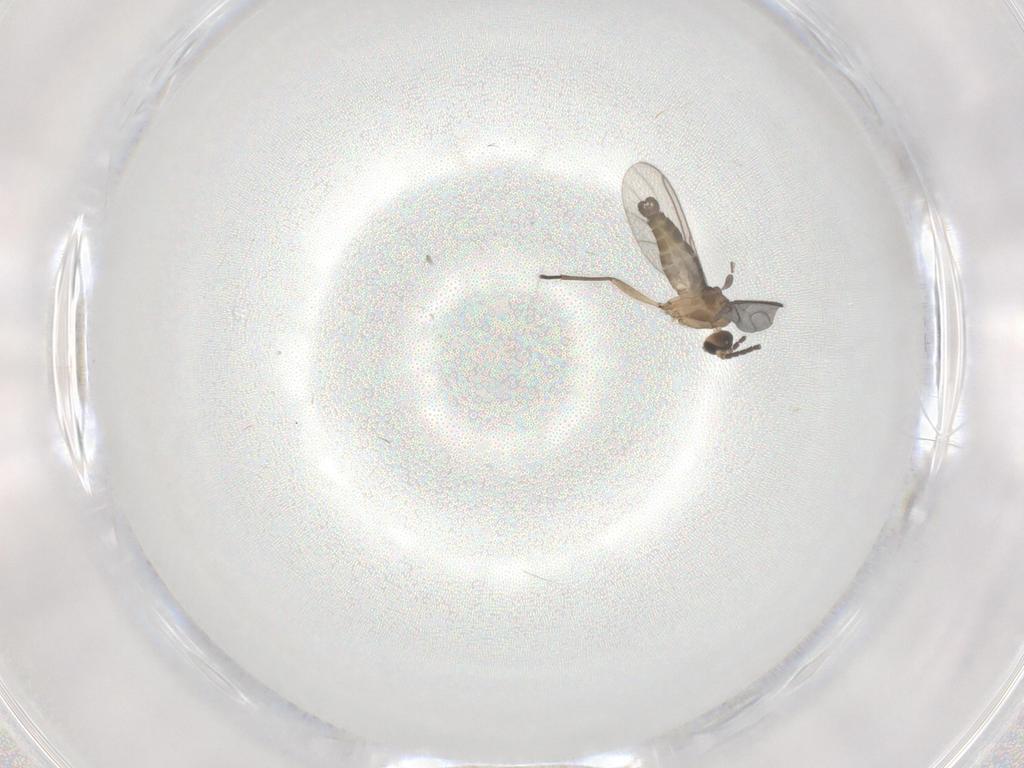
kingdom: Animalia
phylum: Arthropoda
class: Insecta
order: Diptera
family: Sciaridae
